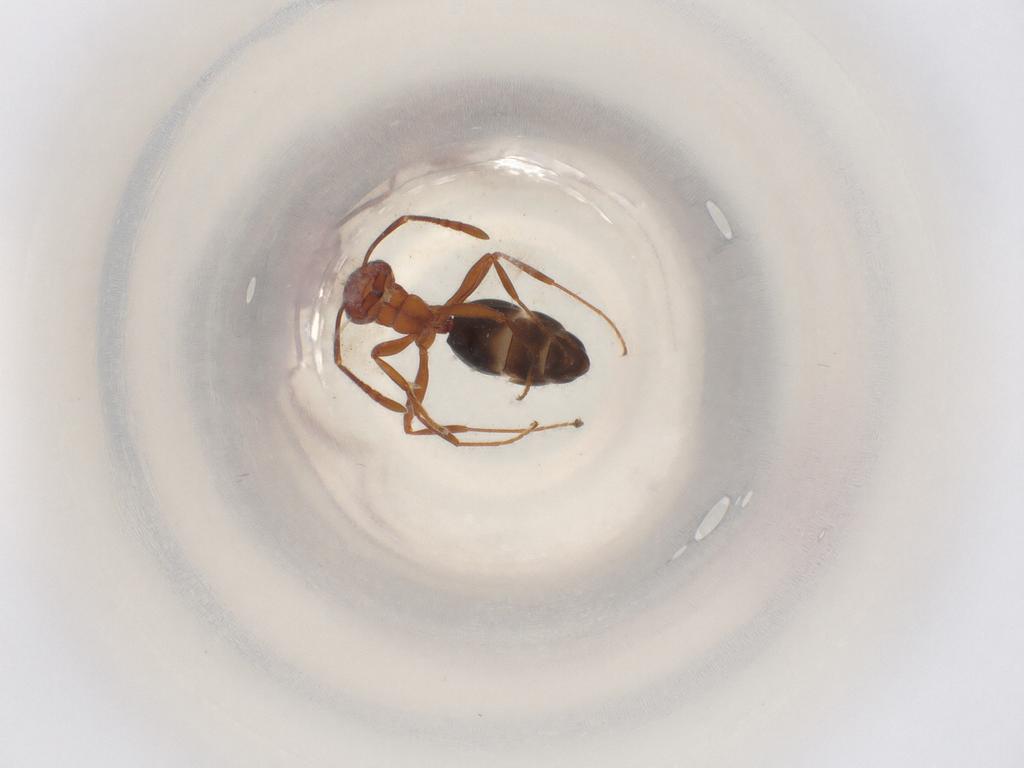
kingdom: Animalia
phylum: Arthropoda
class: Insecta
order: Hymenoptera
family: Formicidae
